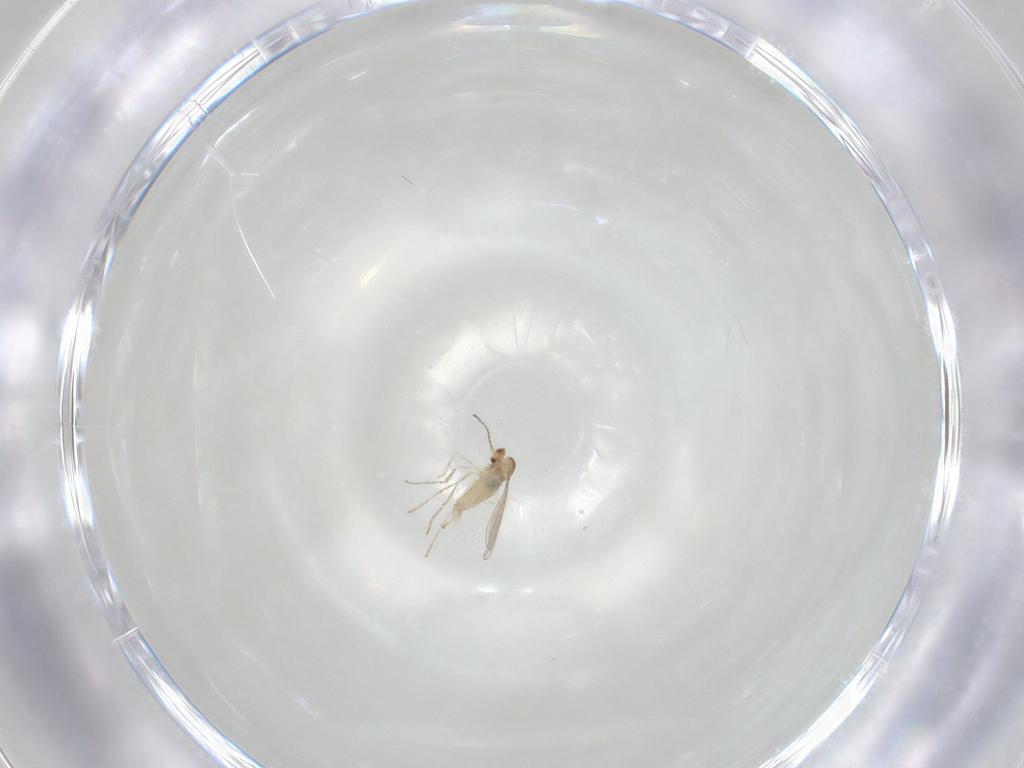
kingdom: Animalia
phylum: Arthropoda
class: Insecta
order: Diptera
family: Cecidomyiidae
